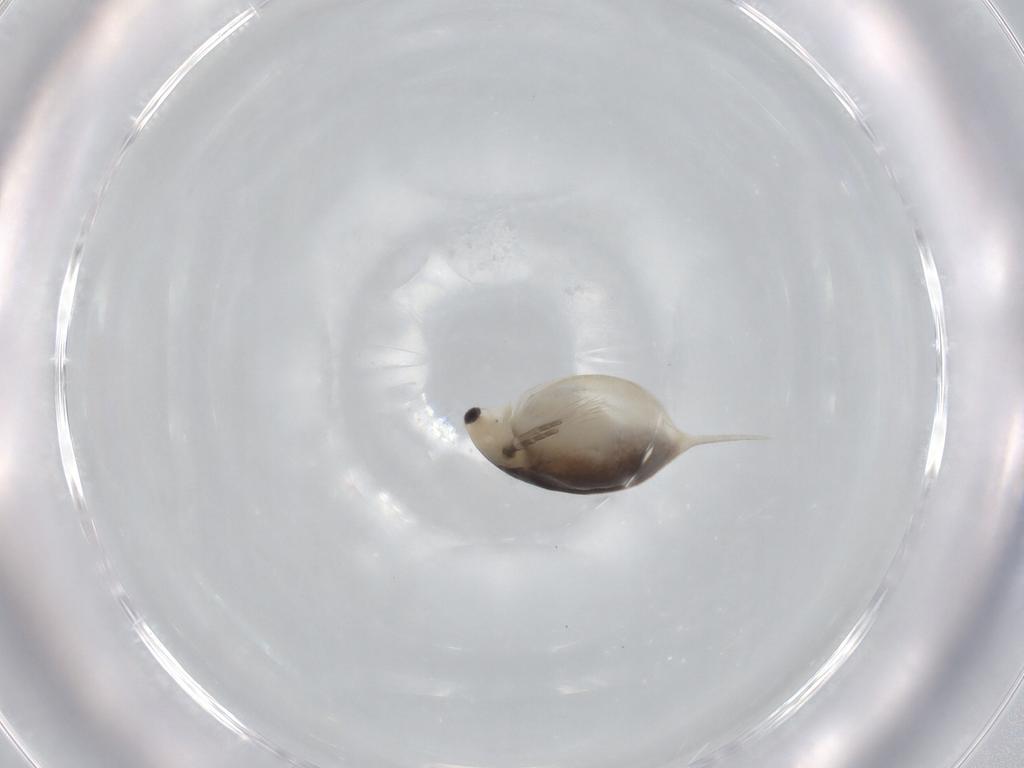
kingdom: Animalia
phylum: Arthropoda
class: Branchiopoda
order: Diplostraca
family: Daphniidae
